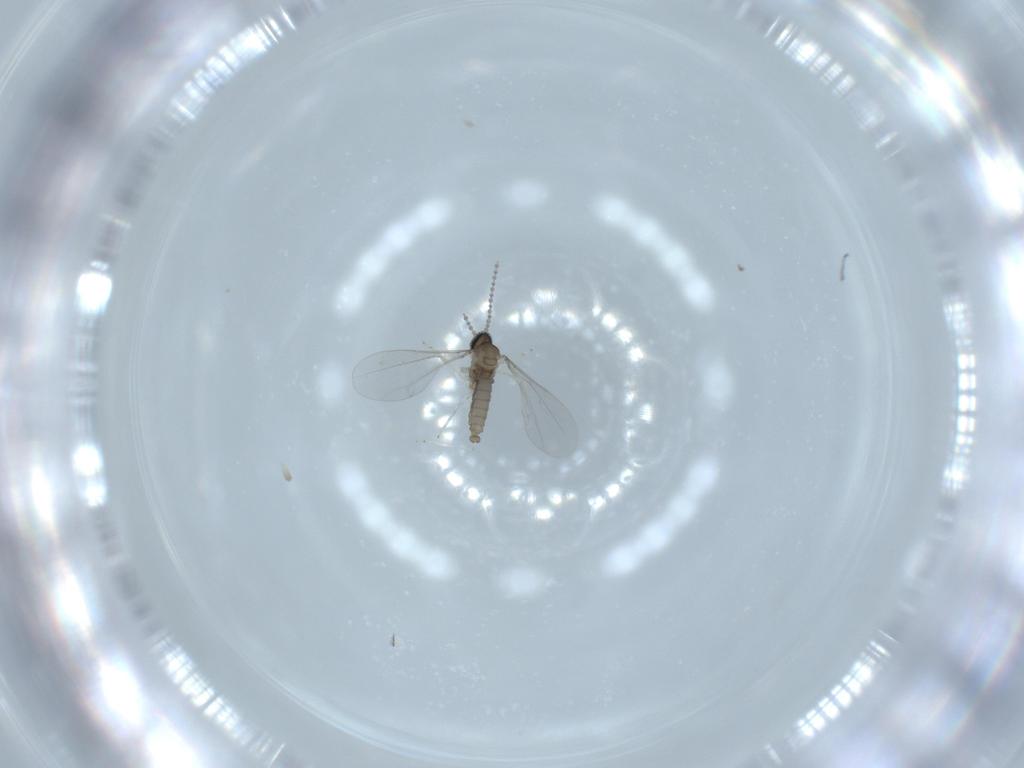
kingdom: Animalia
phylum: Arthropoda
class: Insecta
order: Diptera
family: Cecidomyiidae
